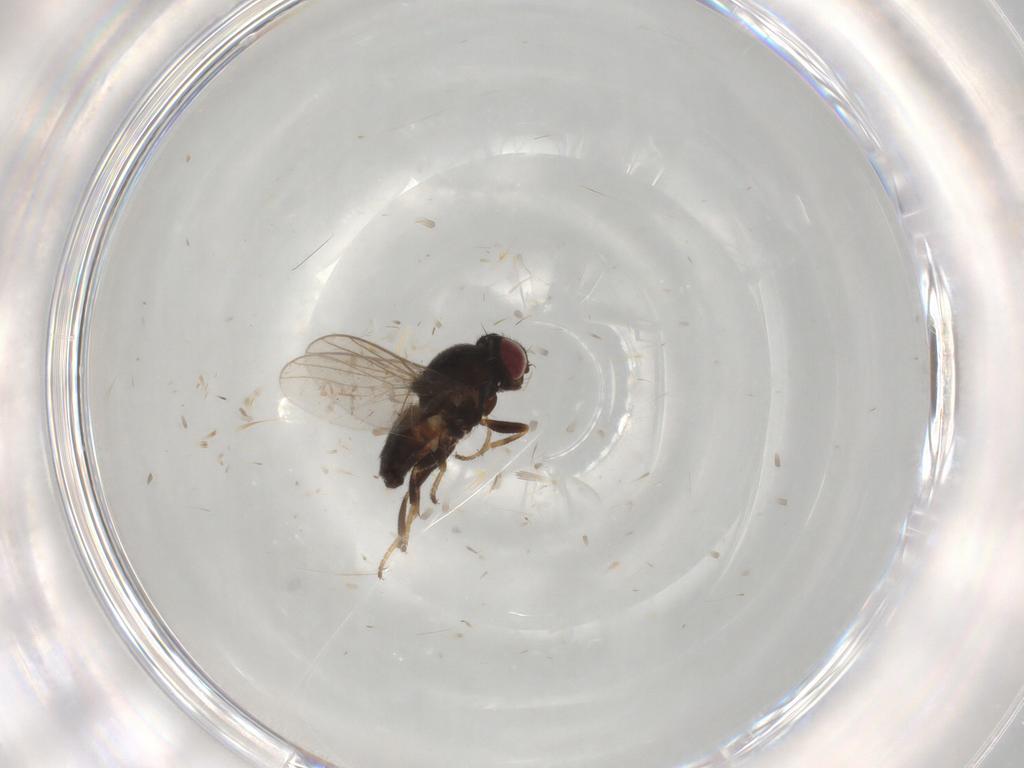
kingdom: Animalia
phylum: Arthropoda
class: Insecta
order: Diptera
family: Chloropidae
